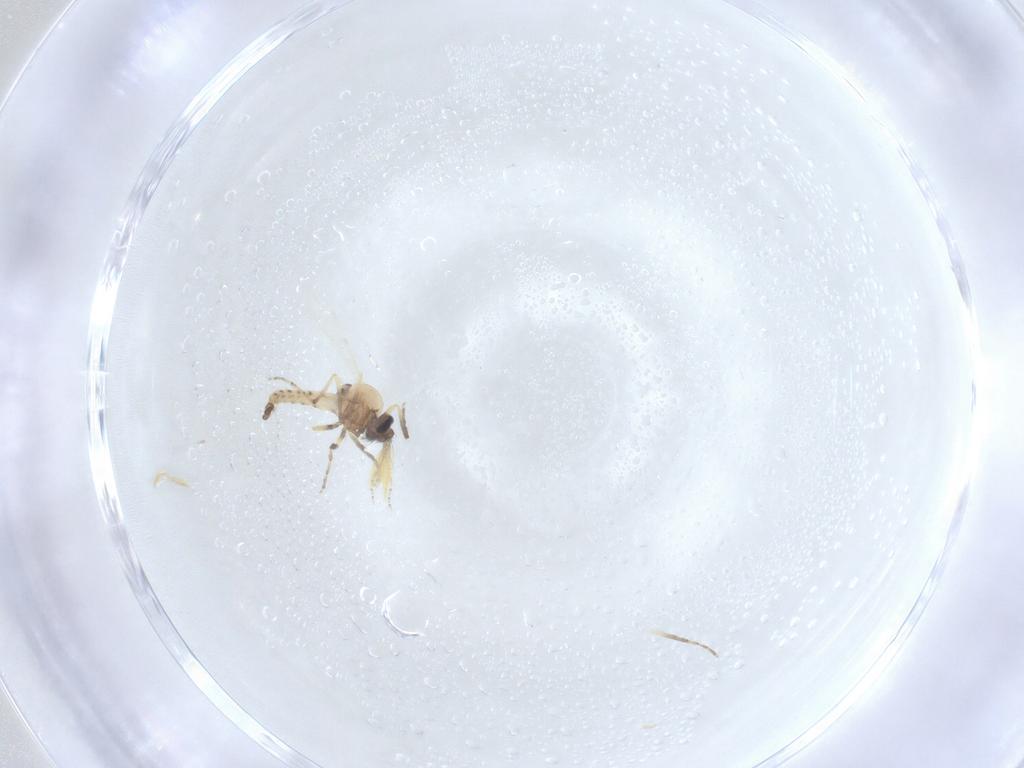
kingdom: Animalia
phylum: Arthropoda
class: Insecta
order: Diptera
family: Ceratopogonidae
